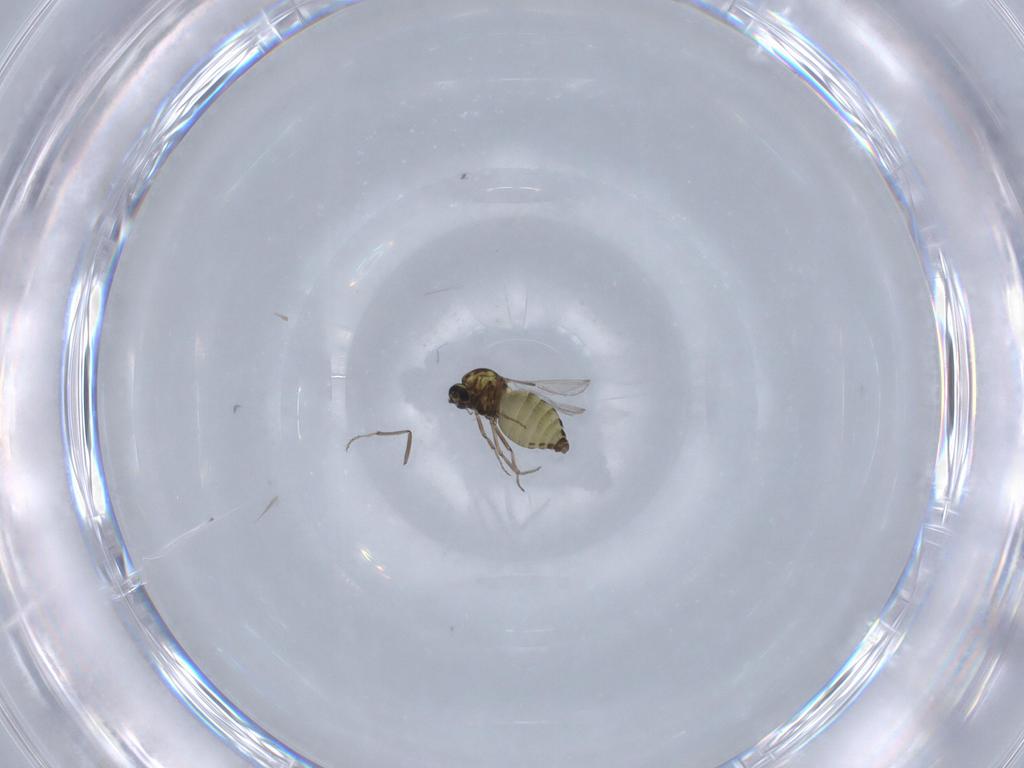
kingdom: Animalia
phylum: Arthropoda
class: Insecta
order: Diptera
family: Ceratopogonidae
